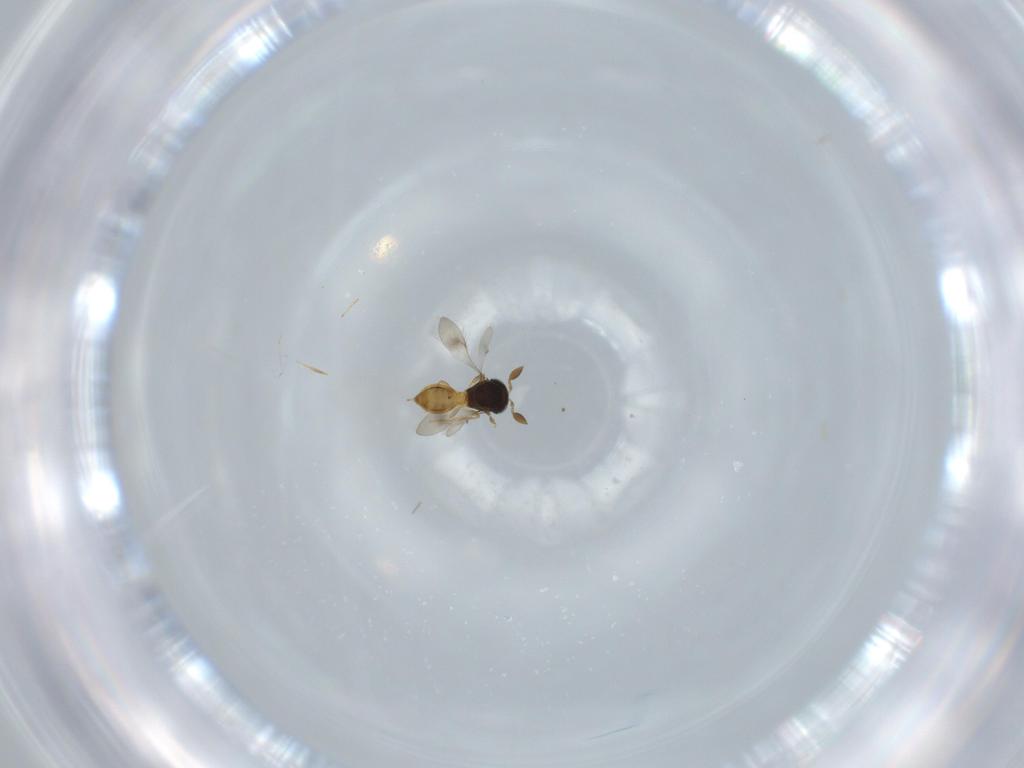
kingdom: Animalia
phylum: Arthropoda
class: Insecta
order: Hymenoptera
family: Scelionidae
